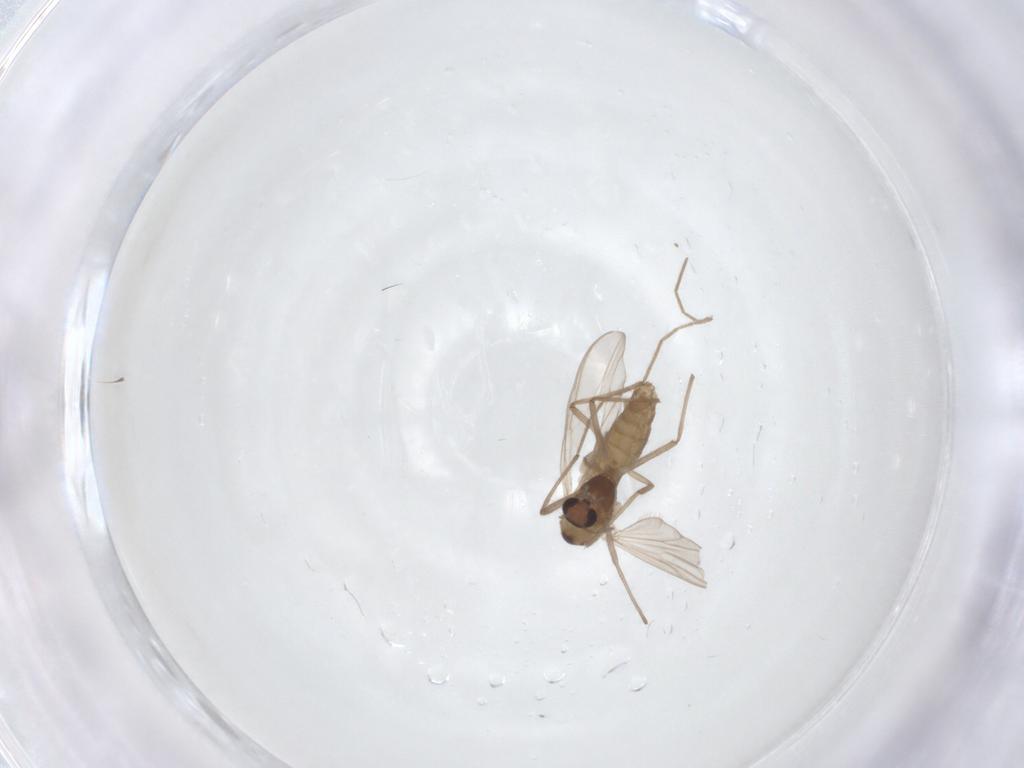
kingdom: Animalia
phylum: Arthropoda
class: Insecta
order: Diptera
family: Chironomidae
